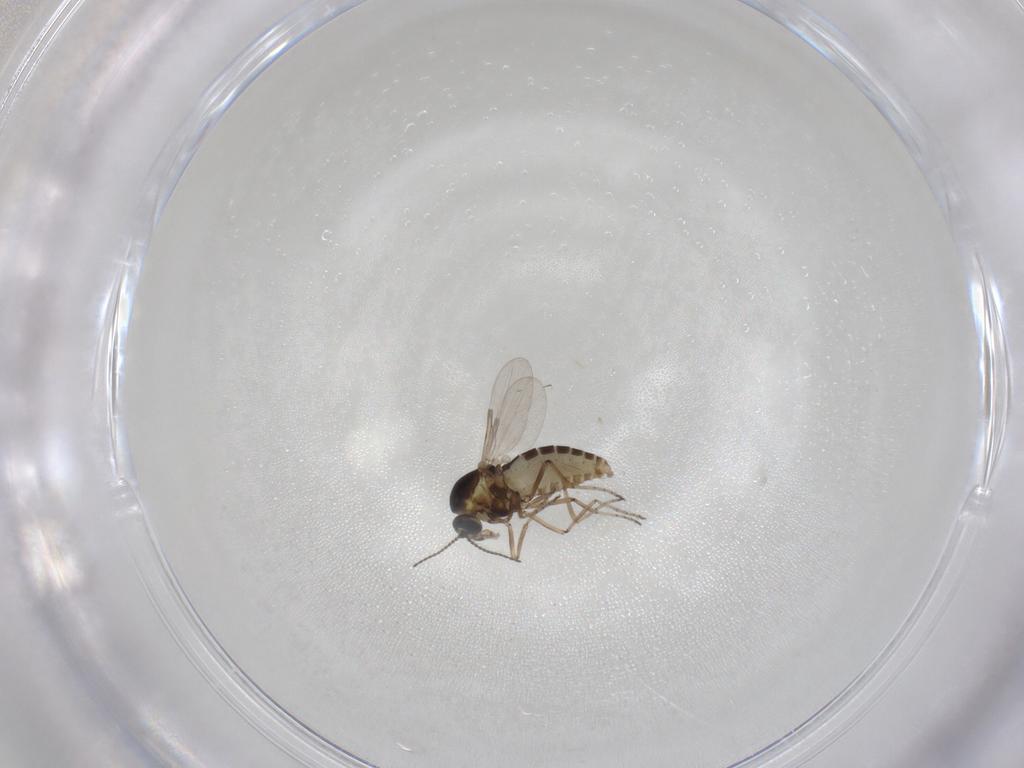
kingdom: Animalia
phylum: Arthropoda
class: Insecta
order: Diptera
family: Ceratopogonidae
